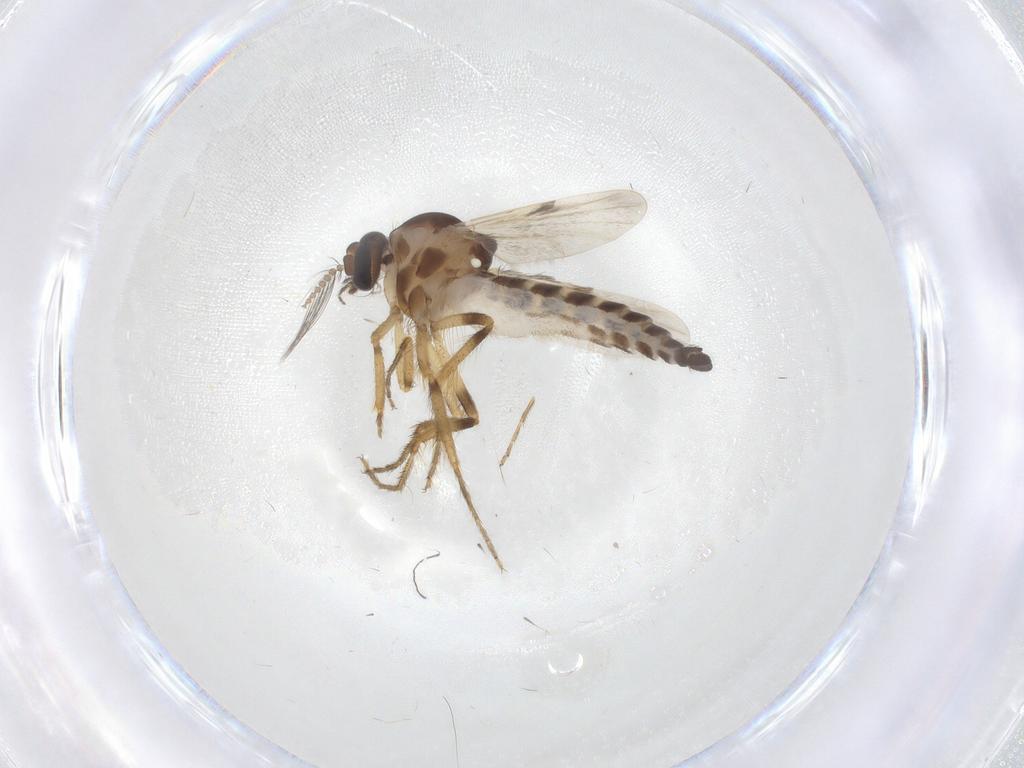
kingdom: Animalia
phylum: Arthropoda
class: Insecta
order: Diptera
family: Ceratopogonidae
